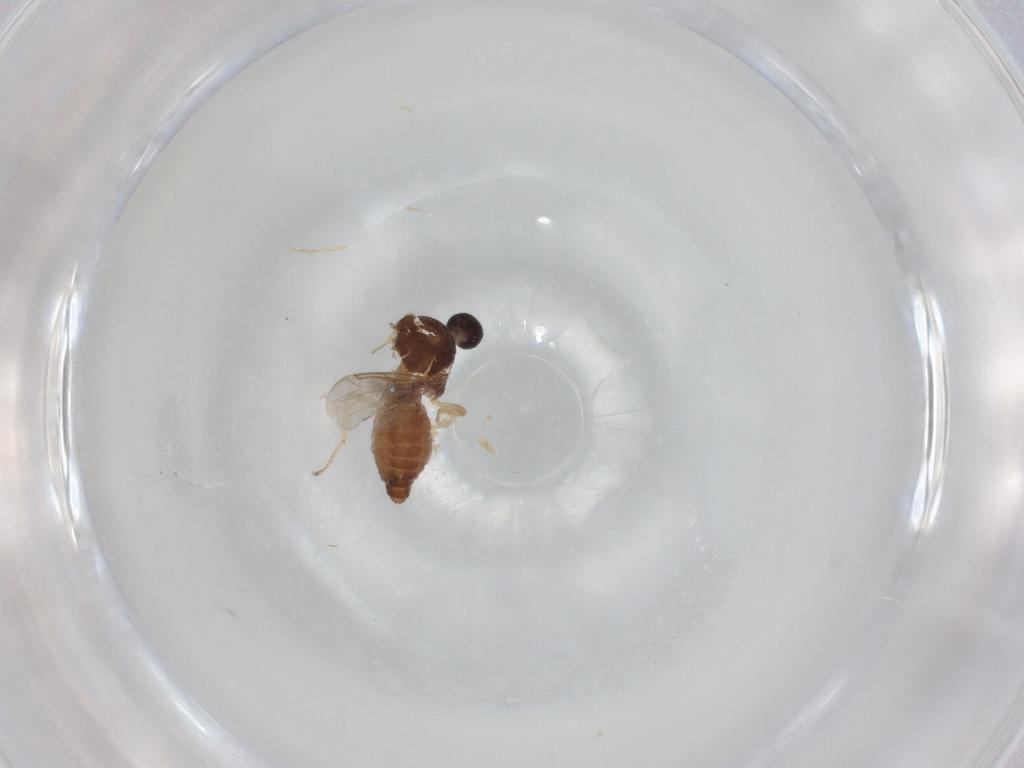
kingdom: Animalia
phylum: Arthropoda
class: Insecta
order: Diptera
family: Ceratopogonidae
